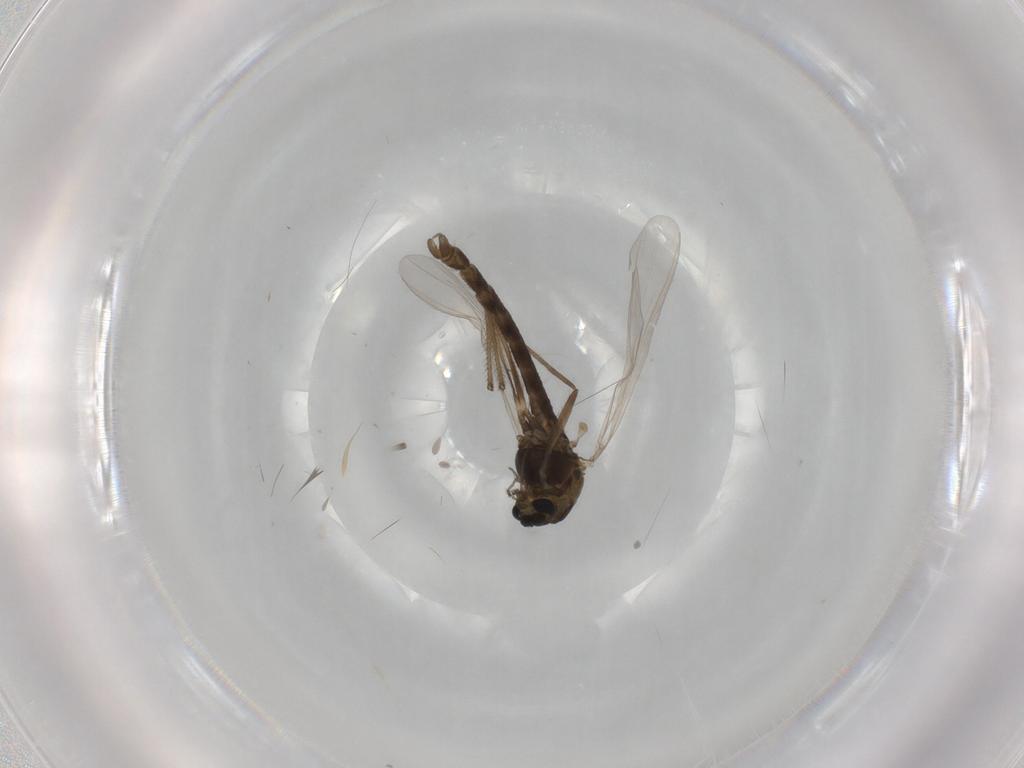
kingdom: Animalia
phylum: Arthropoda
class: Insecta
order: Diptera
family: Chironomidae
